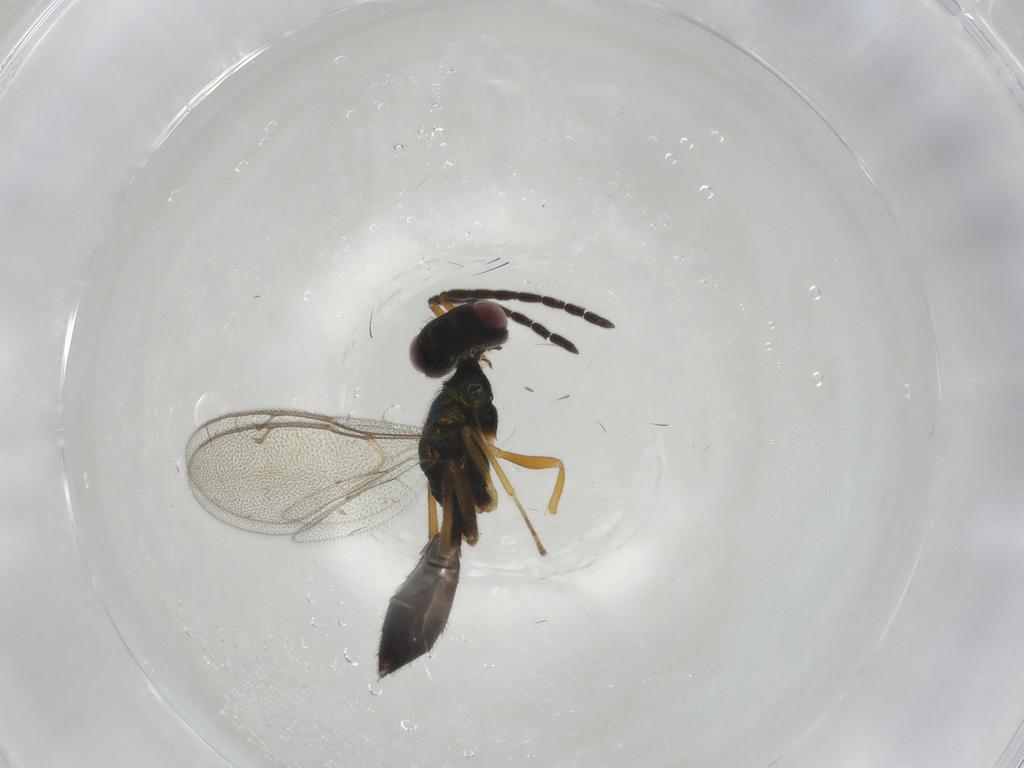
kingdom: Animalia
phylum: Arthropoda
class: Insecta
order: Hymenoptera
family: Pteromalidae
